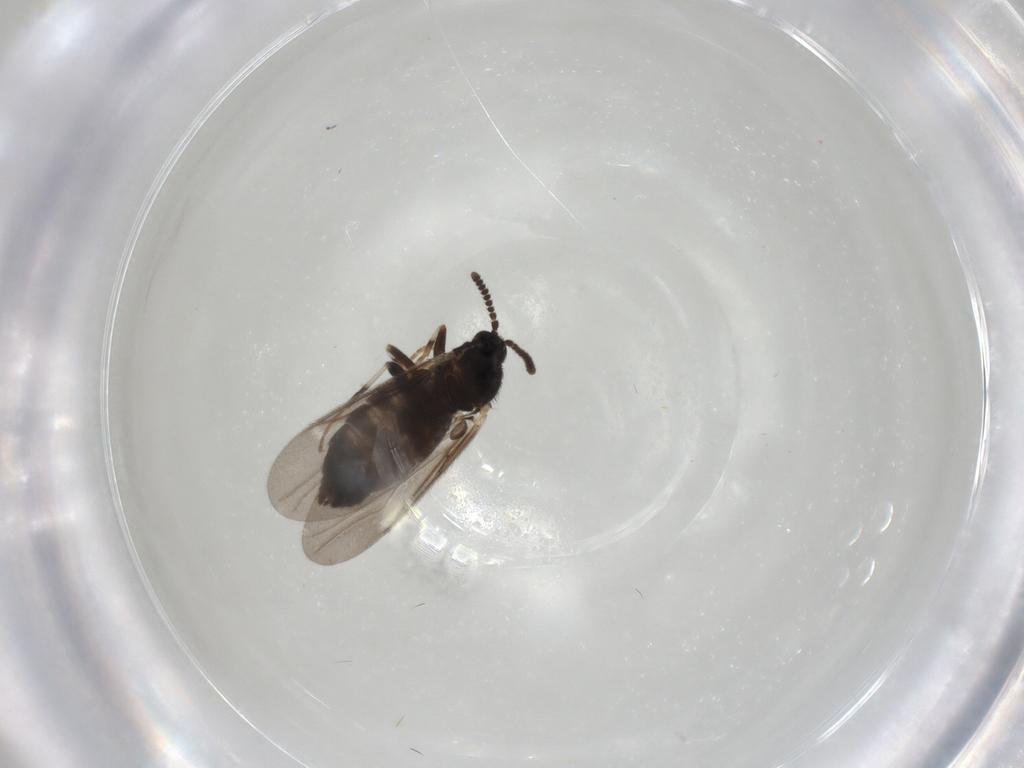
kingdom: Animalia
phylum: Arthropoda
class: Insecta
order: Diptera
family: Scatopsidae
